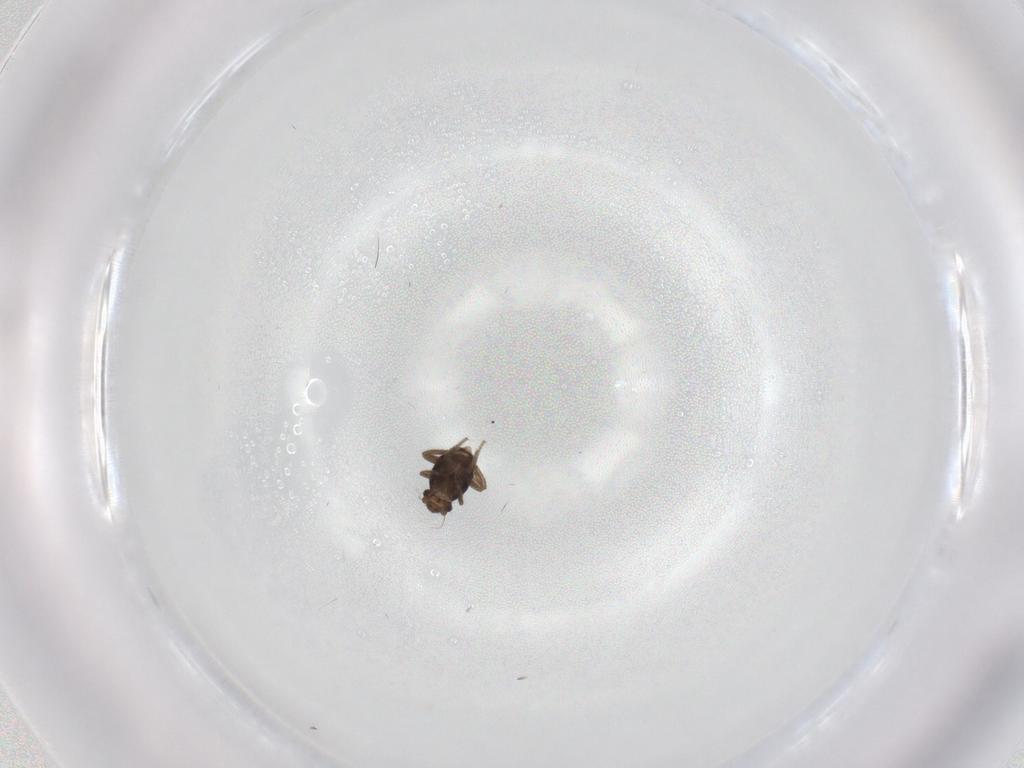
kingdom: Animalia
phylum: Arthropoda
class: Insecta
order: Diptera
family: Phoridae
